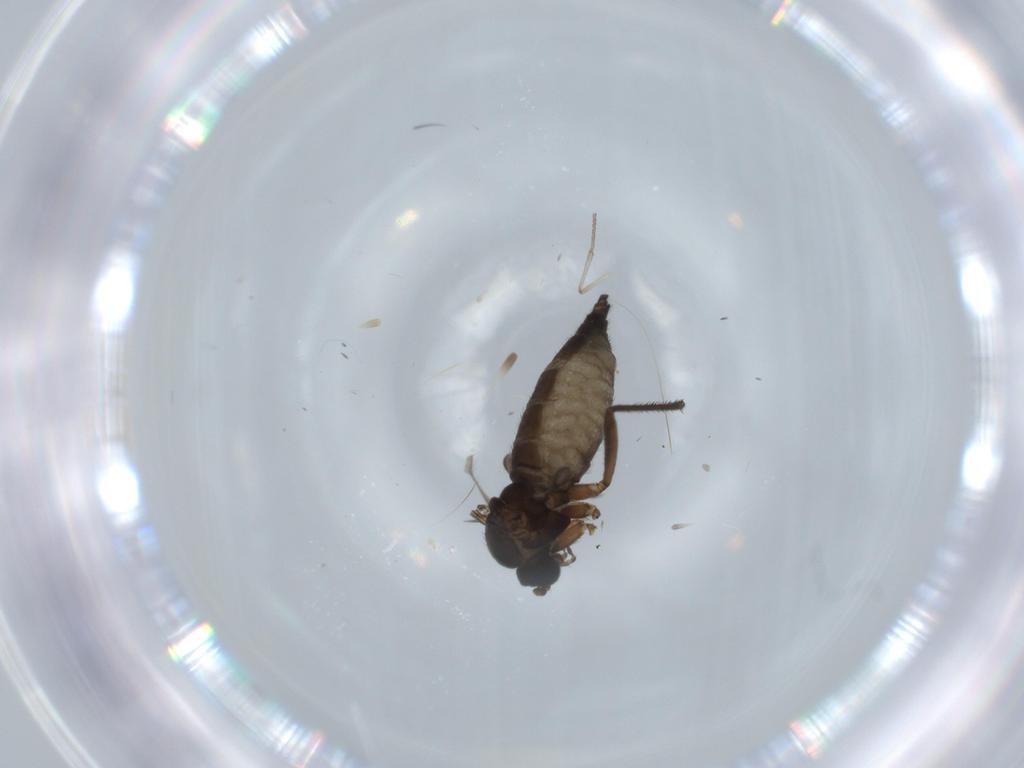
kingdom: Animalia
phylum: Arthropoda
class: Insecta
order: Diptera
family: Sciaridae
